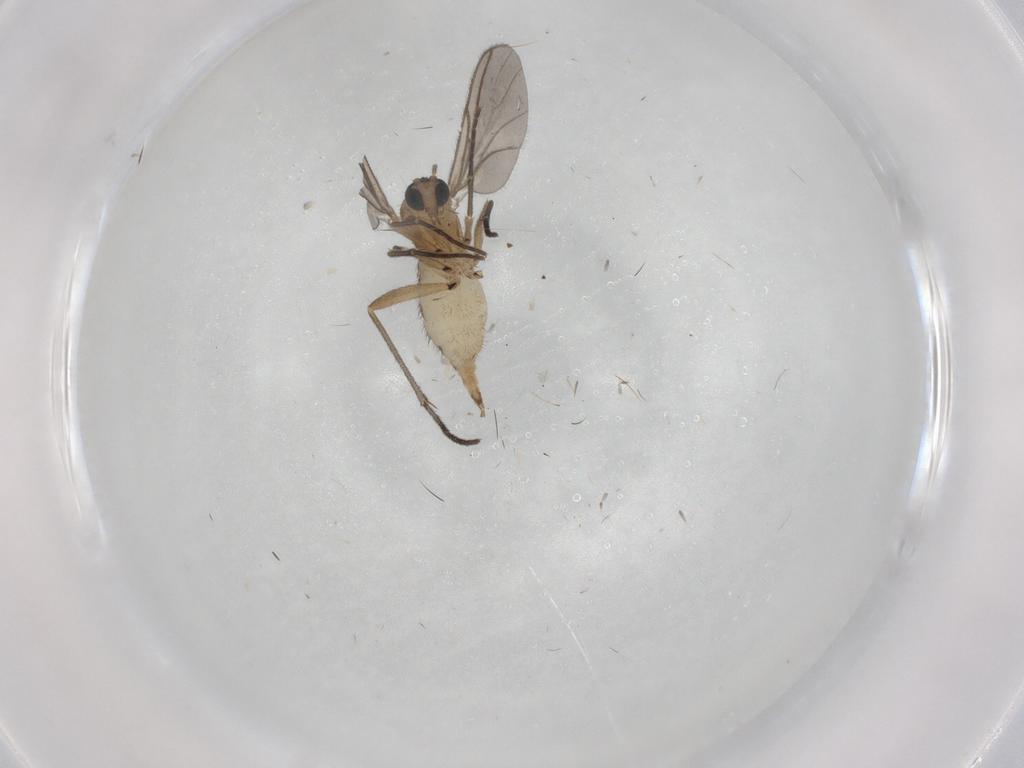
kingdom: Animalia
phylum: Arthropoda
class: Insecta
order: Diptera
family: Sciaridae
